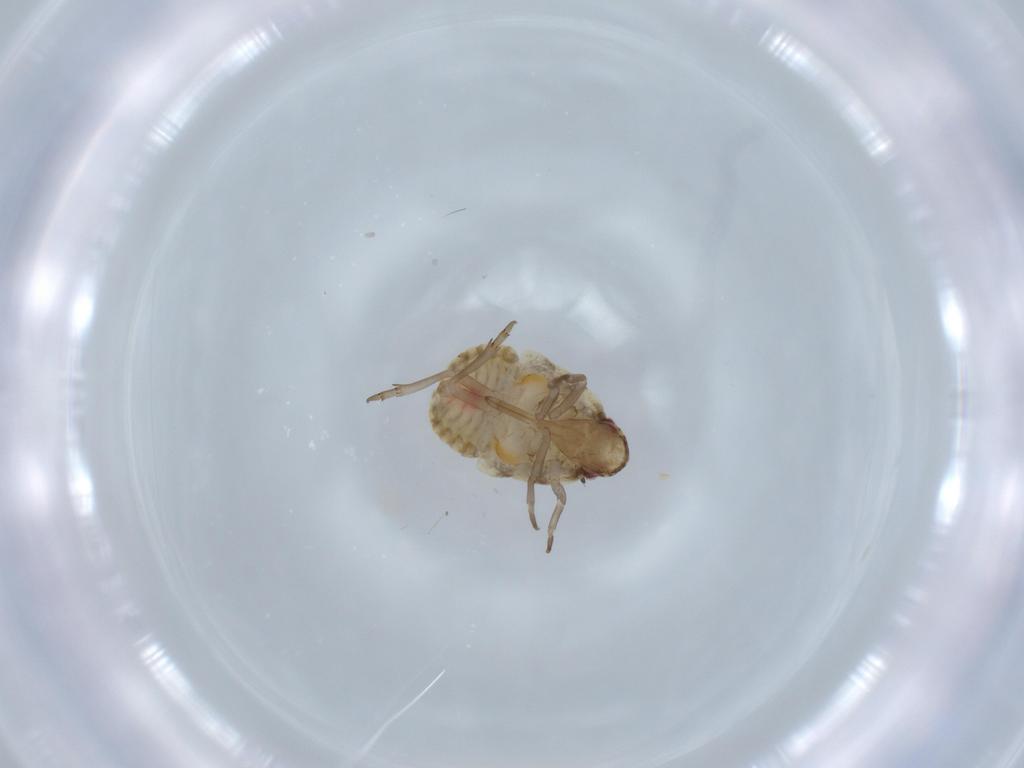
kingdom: Animalia
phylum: Arthropoda
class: Insecta
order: Hemiptera
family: Flatidae
